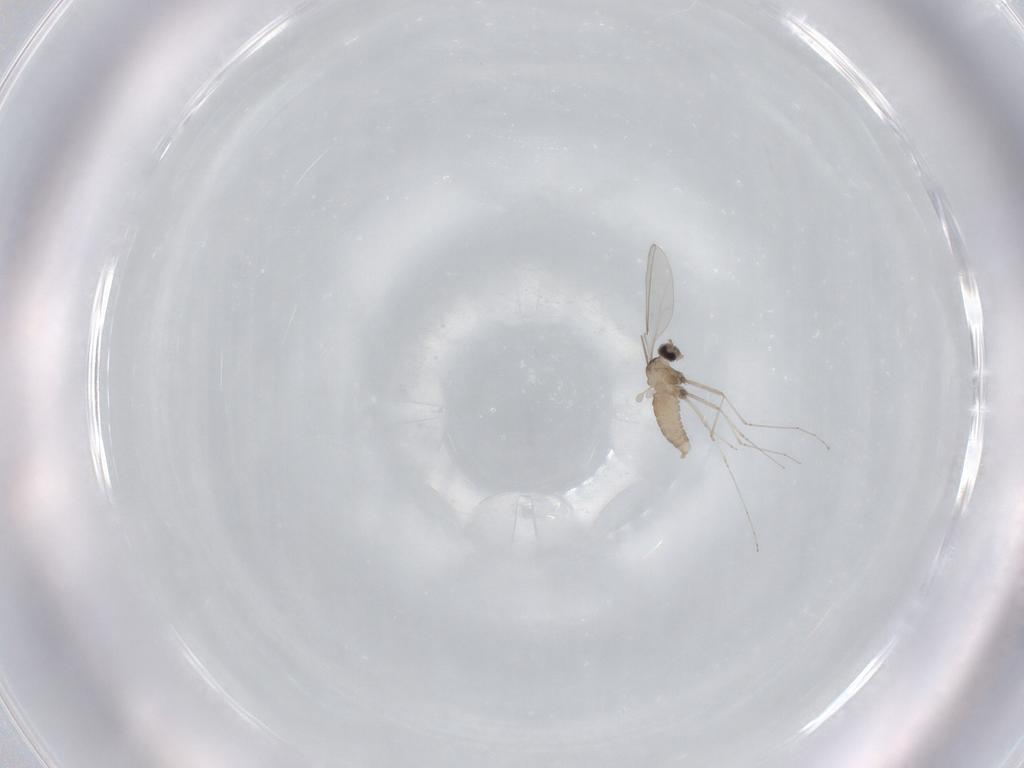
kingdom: Animalia
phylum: Arthropoda
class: Insecta
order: Diptera
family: Cecidomyiidae
